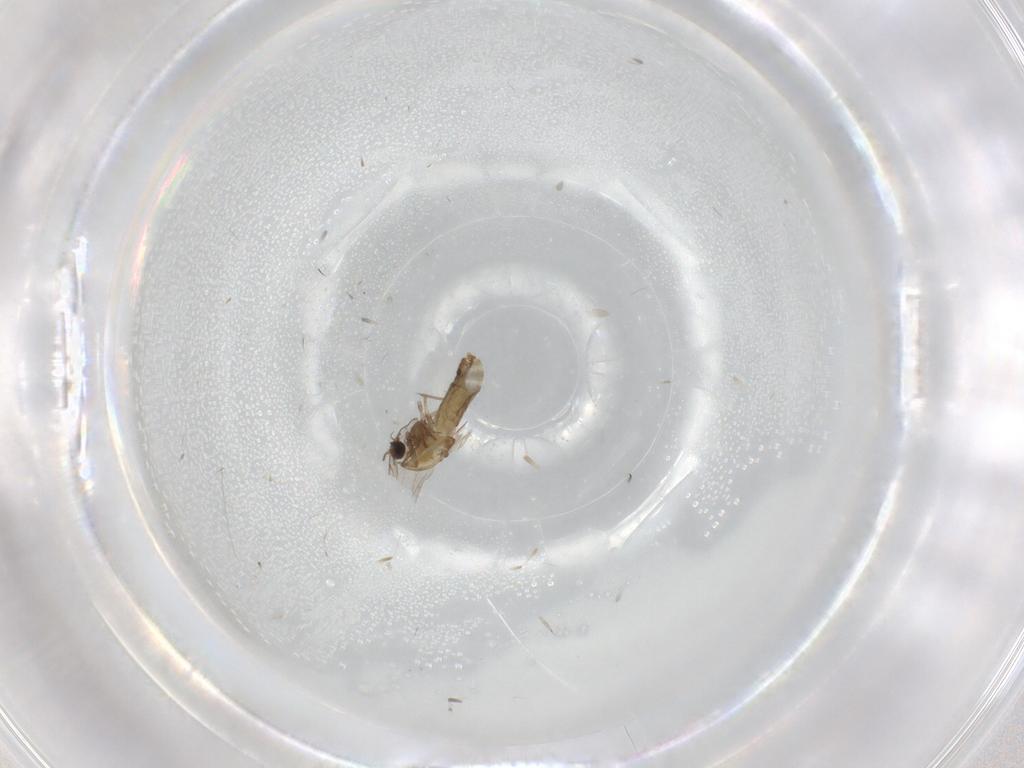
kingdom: Animalia
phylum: Arthropoda
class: Insecta
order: Diptera
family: Chironomidae
